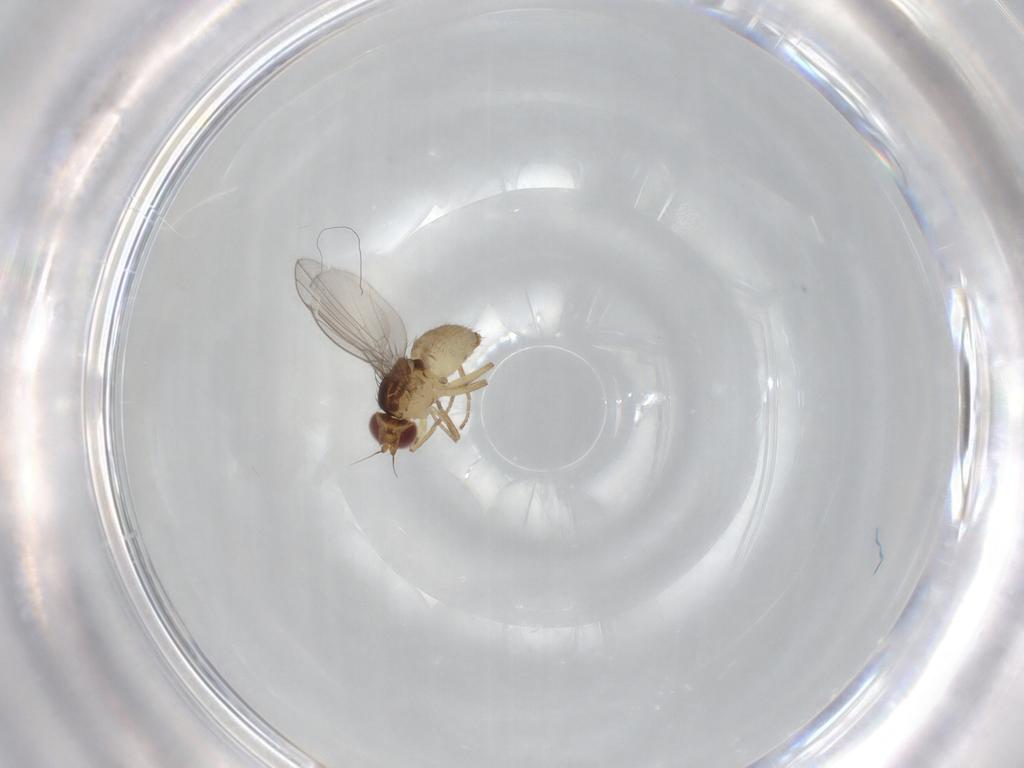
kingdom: Animalia
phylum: Arthropoda
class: Insecta
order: Diptera
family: Agromyzidae
